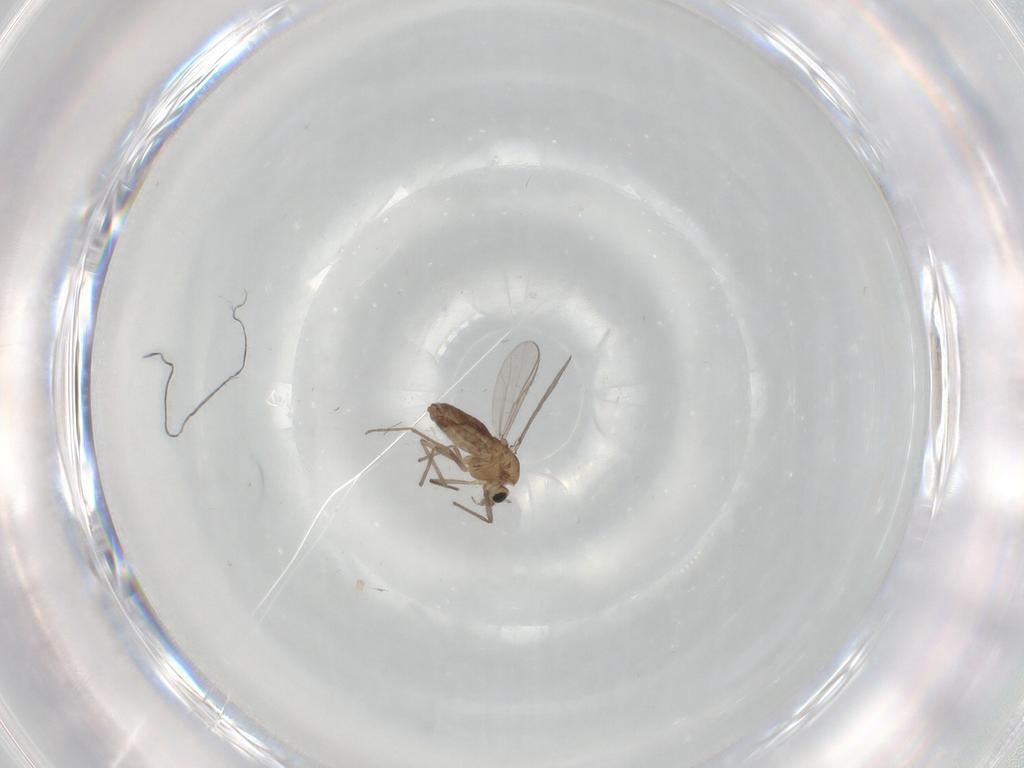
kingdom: Animalia
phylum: Arthropoda
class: Insecta
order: Diptera
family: Chironomidae
